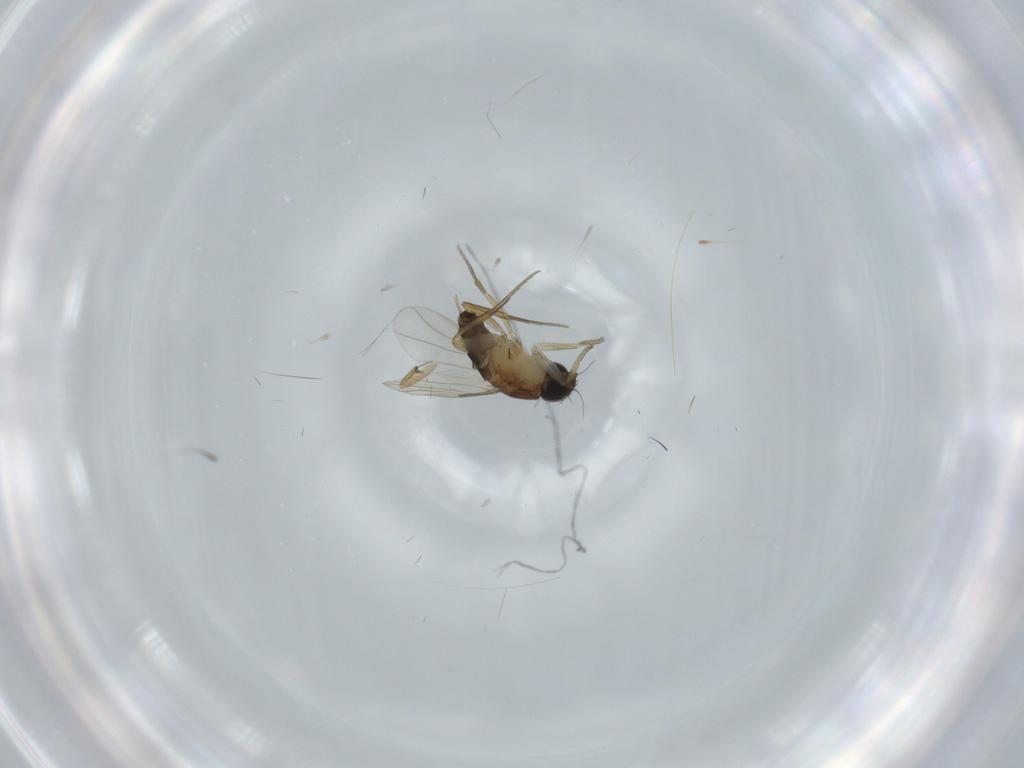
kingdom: Animalia
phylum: Arthropoda
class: Insecta
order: Diptera
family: Phoridae
